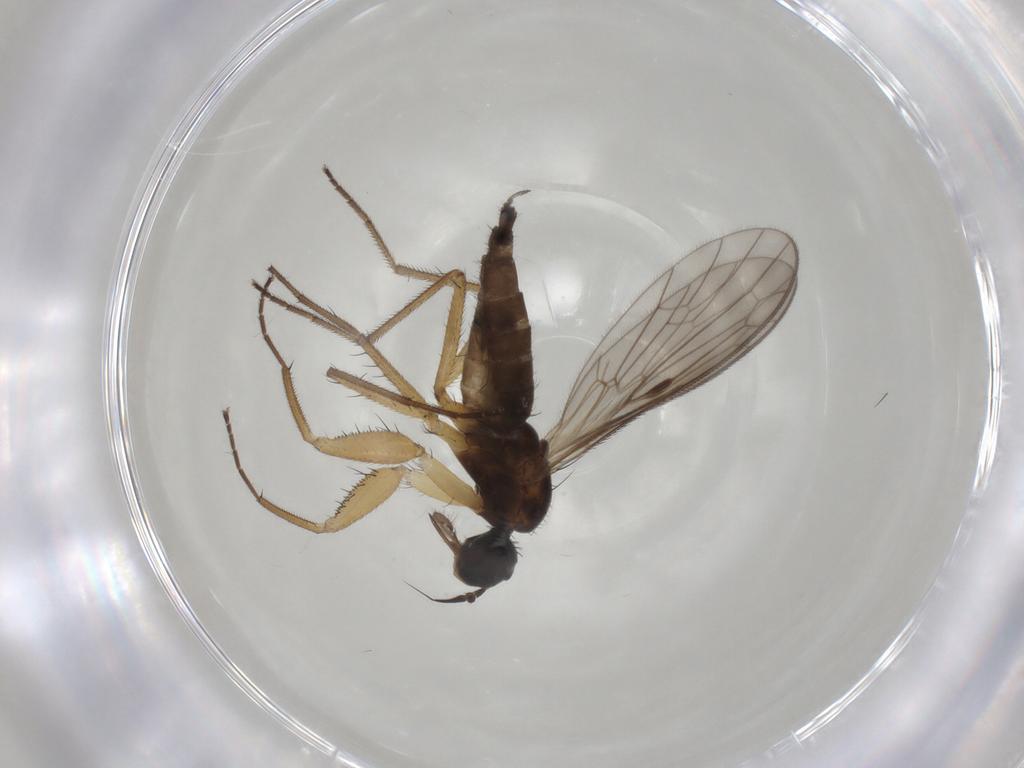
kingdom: Animalia
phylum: Arthropoda
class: Insecta
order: Diptera
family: Chironomidae
